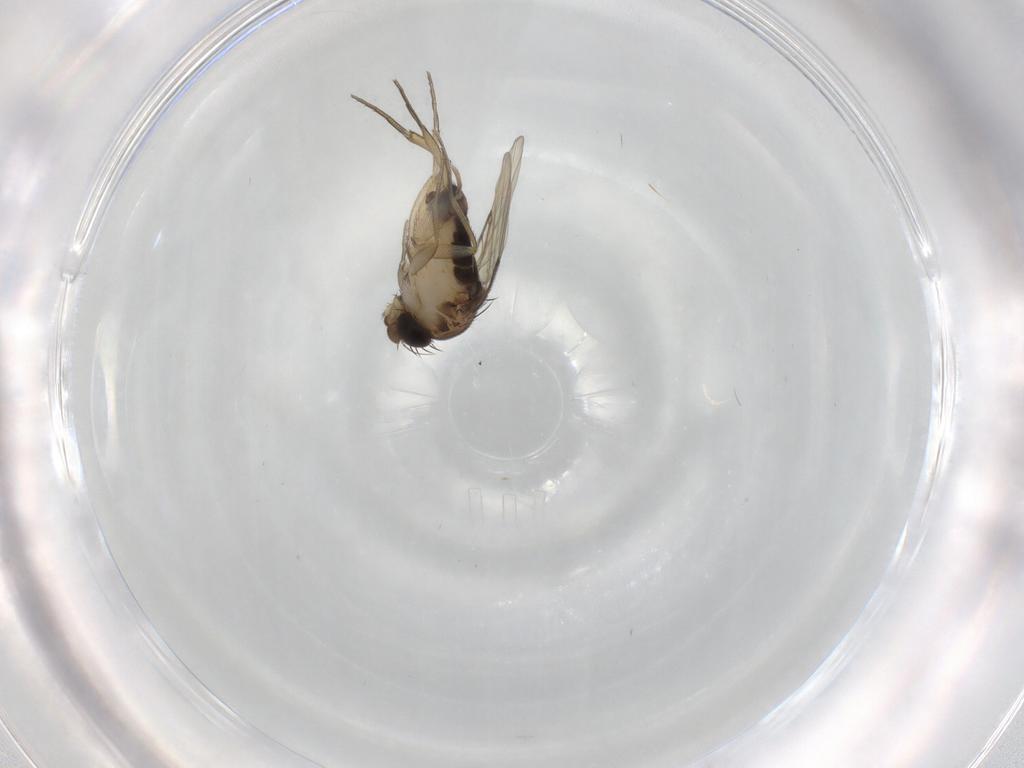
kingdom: Animalia
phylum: Arthropoda
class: Insecta
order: Diptera
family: Phoridae
